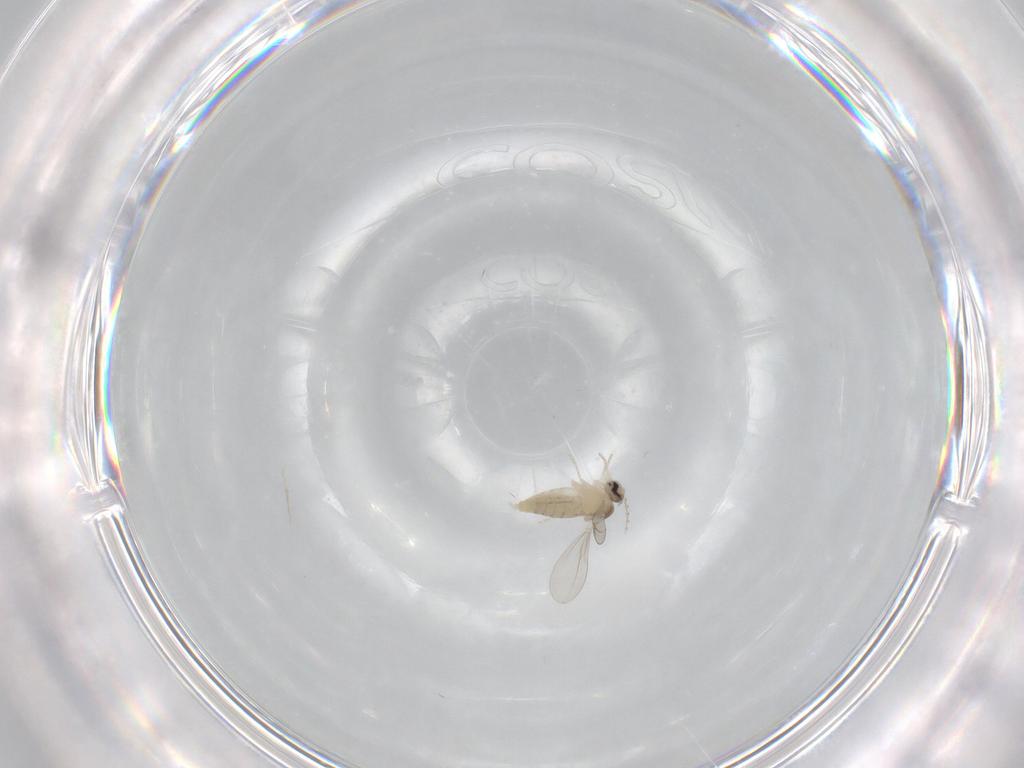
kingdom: Animalia
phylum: Arthropoda
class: Insecta
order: Diptera
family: Cecidomyiidae
